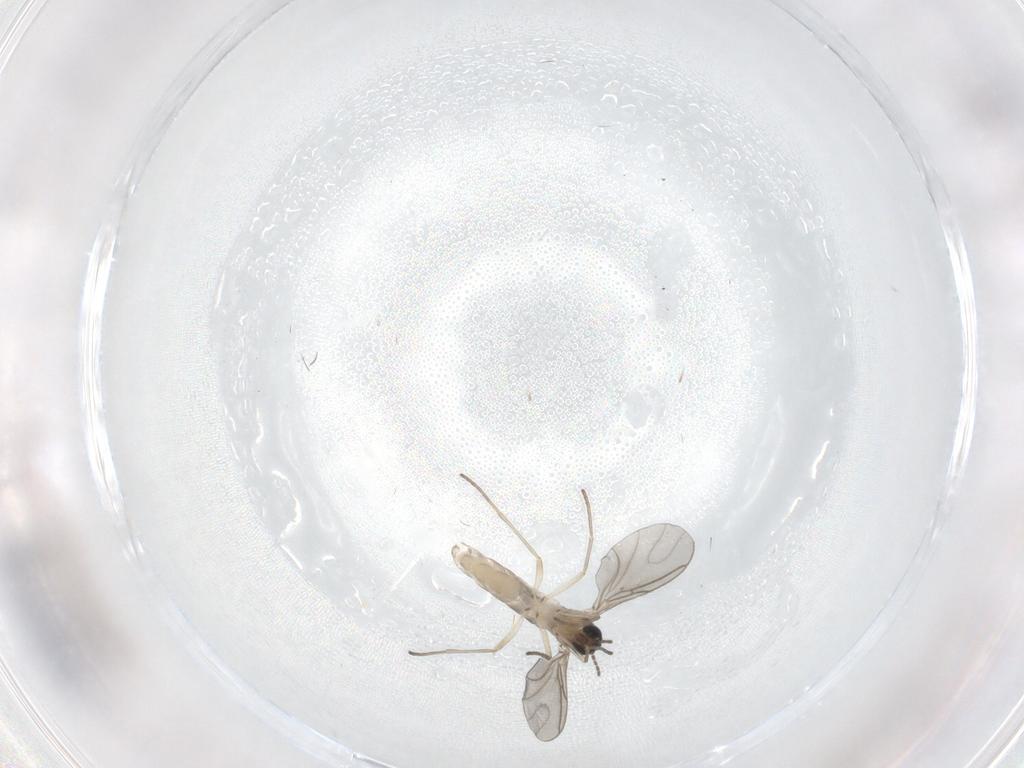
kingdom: Animalia
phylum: Arthropoda
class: Insecta
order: Diptera
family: Sciaridae
